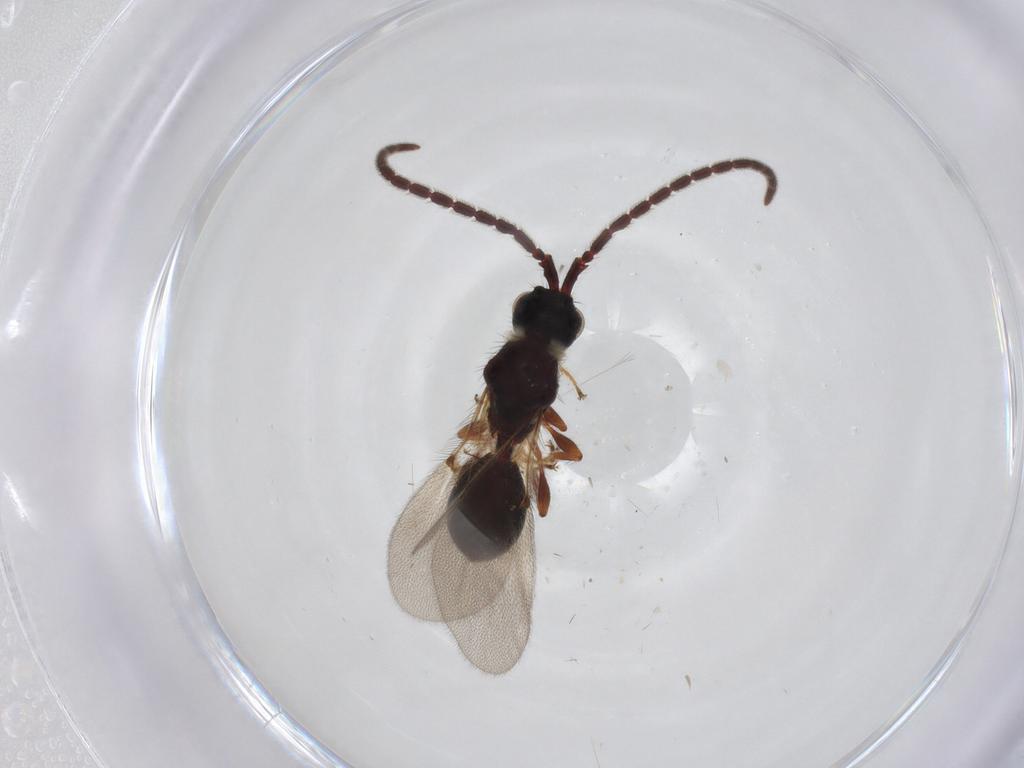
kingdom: Animalia
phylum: Arthropoda
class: Insecta
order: Hymenoptera
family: Diapriidae
